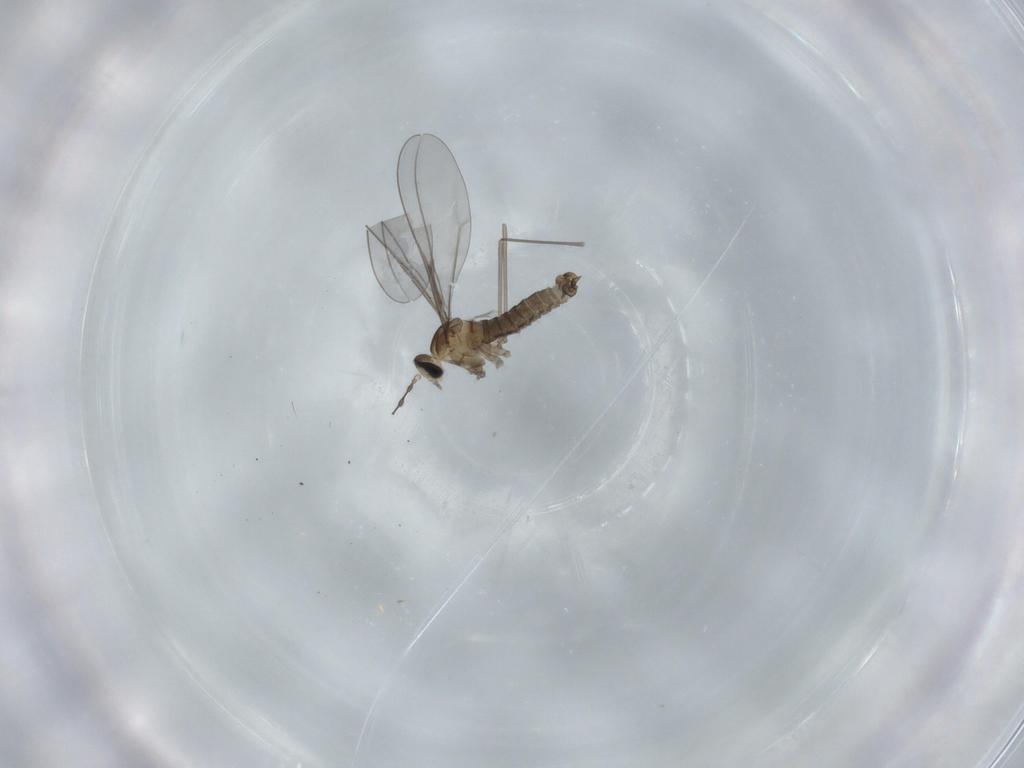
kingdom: Animalia
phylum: Arthropoda
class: Insecta
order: Diptera
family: Cecidomyiidae
